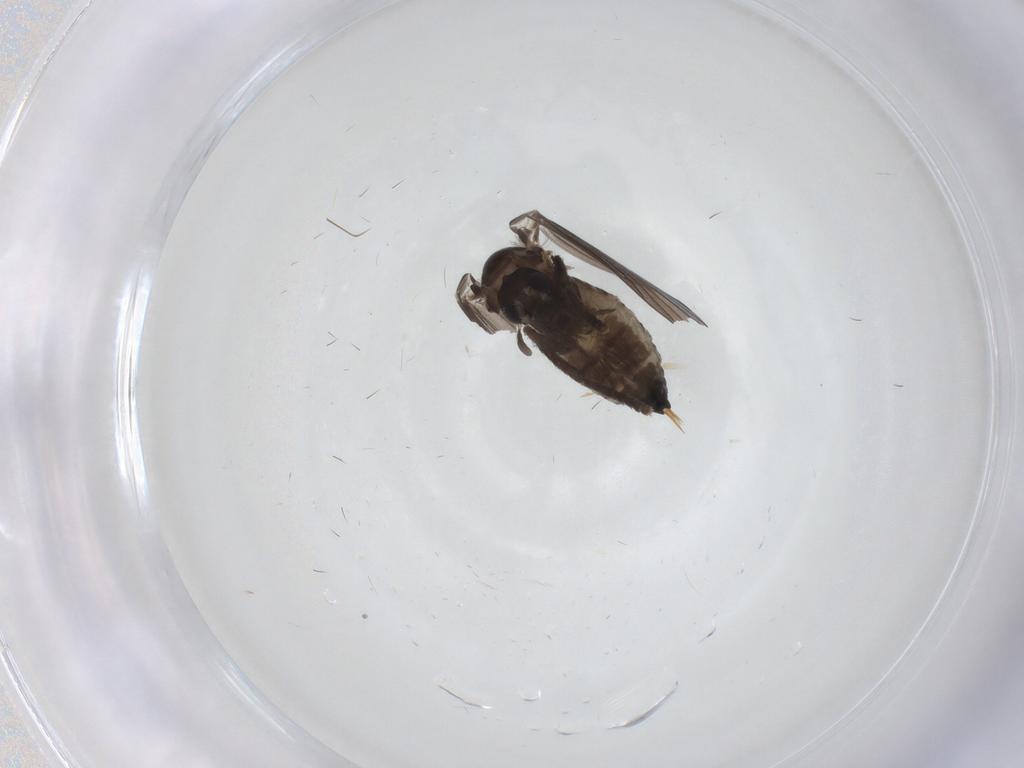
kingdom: Animalia
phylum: Arthropoda
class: Insecta
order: Diptera
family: Psychodidae
